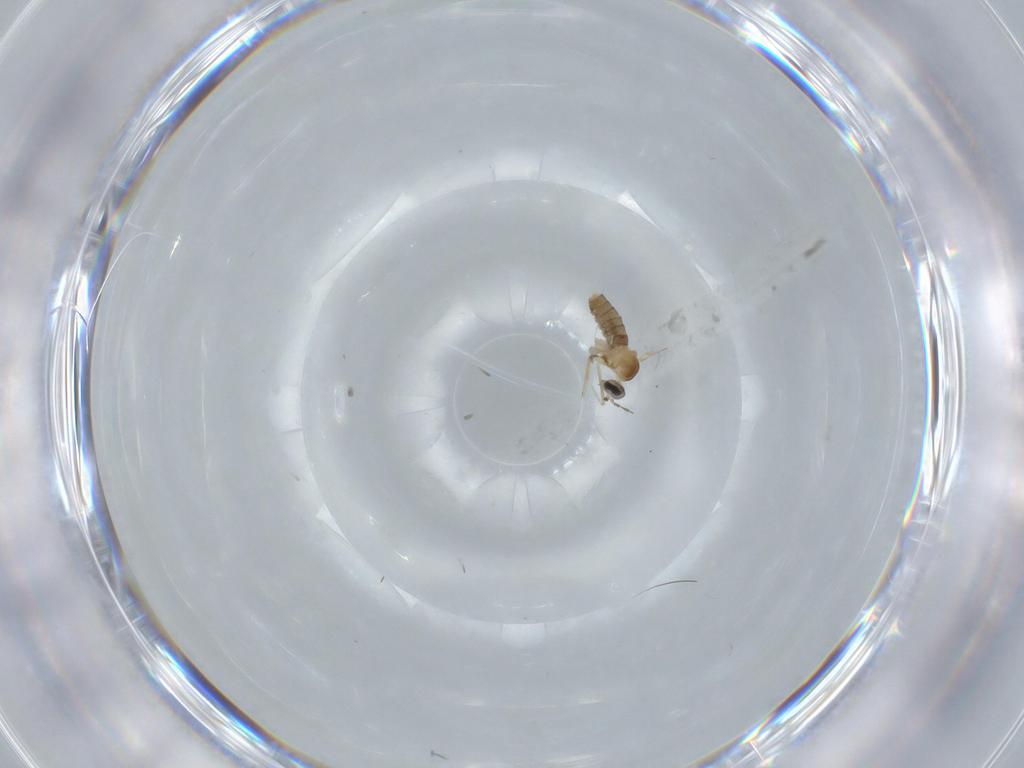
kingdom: Animalia
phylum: Arthropoda
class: Insecta
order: Diptera
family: Cecidomyiidae
